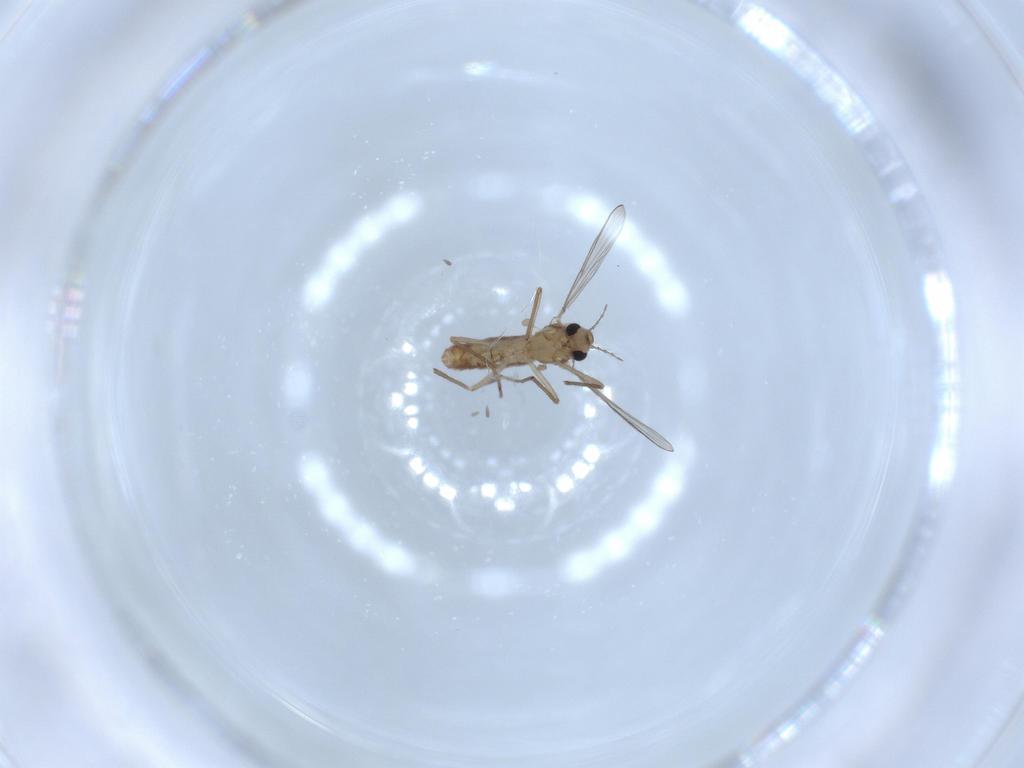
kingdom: Animalia
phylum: Arthropoda
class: Insecta
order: Diptera
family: Chironomidae
